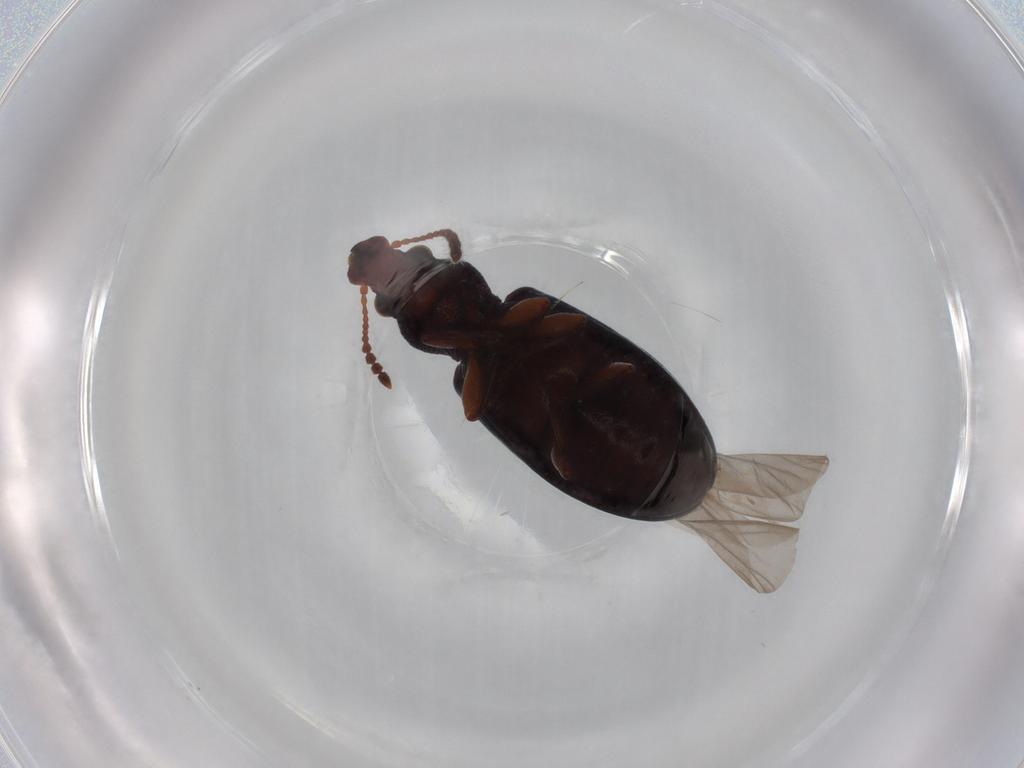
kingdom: Animalia
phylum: Arthropoda
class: Insecta
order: Coleoptera
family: Salpingidae
